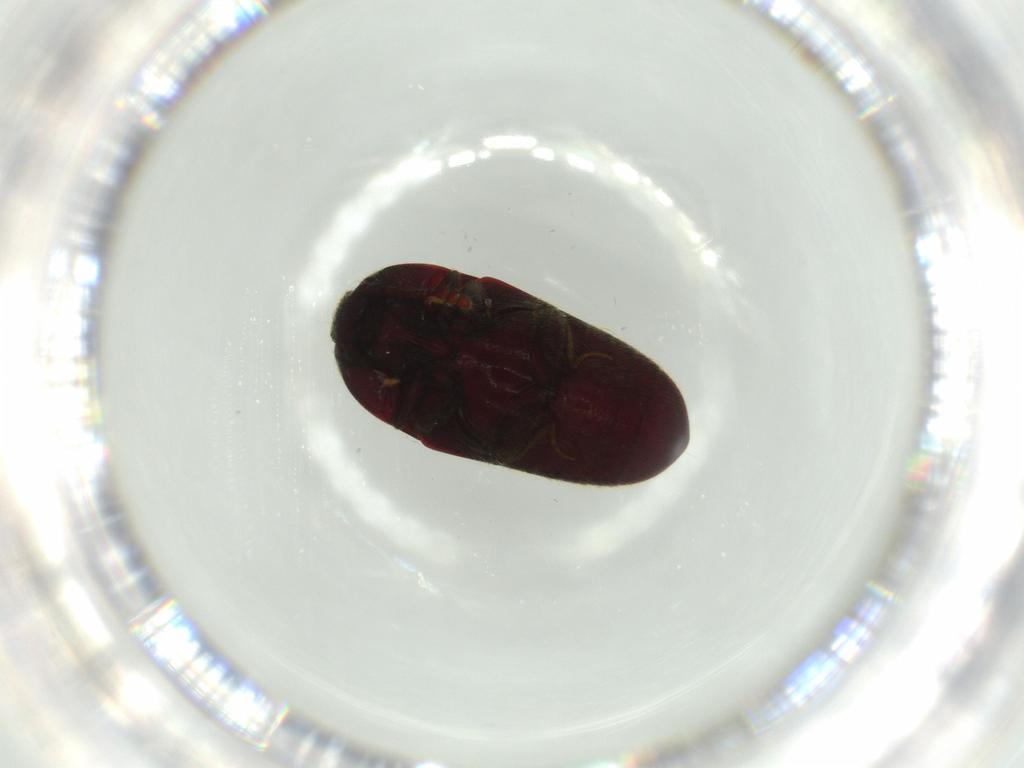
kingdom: Animalia
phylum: Arthropoda
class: Insecta
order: Coleoptera
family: Throscidae
